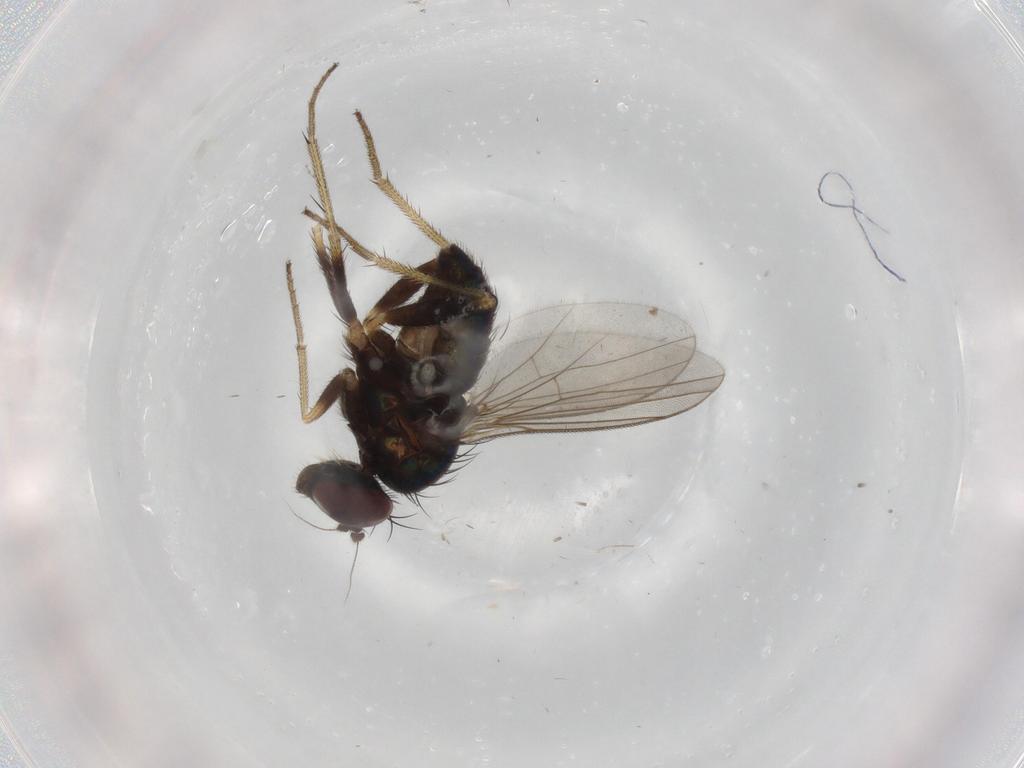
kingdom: Animalia
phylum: Arthropoda
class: Insecta
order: Diptera
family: Cecidomyiidae
